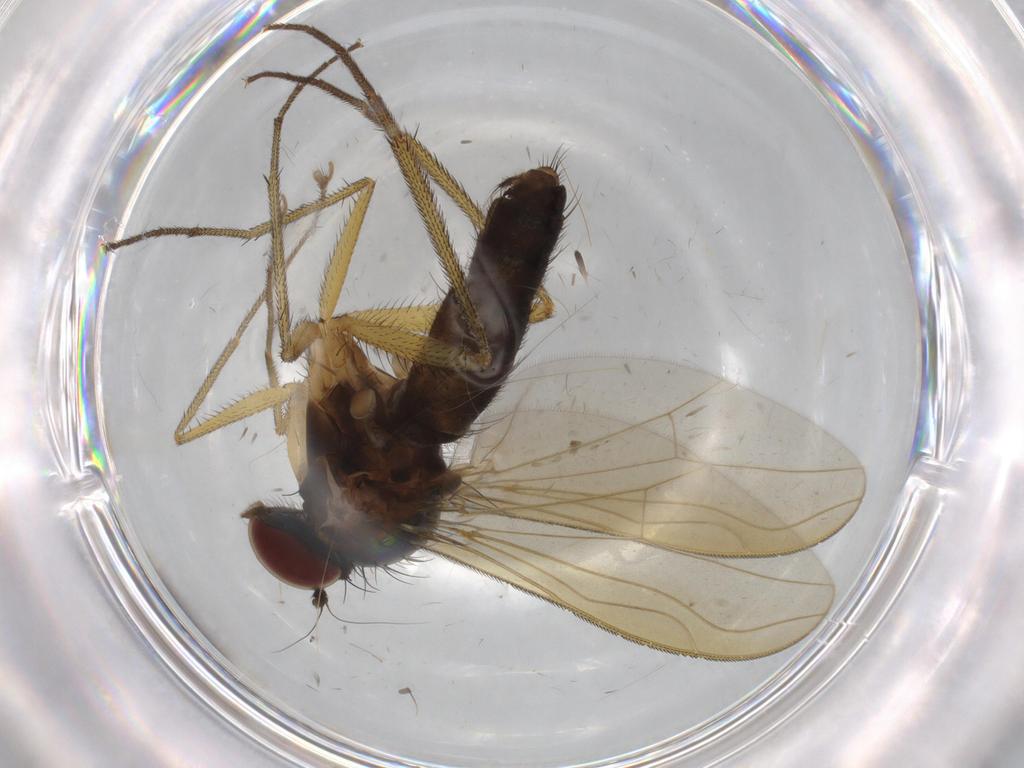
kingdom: Animalia
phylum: Arthropoda
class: Insecta
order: Diptera
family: Dolichopodidae
